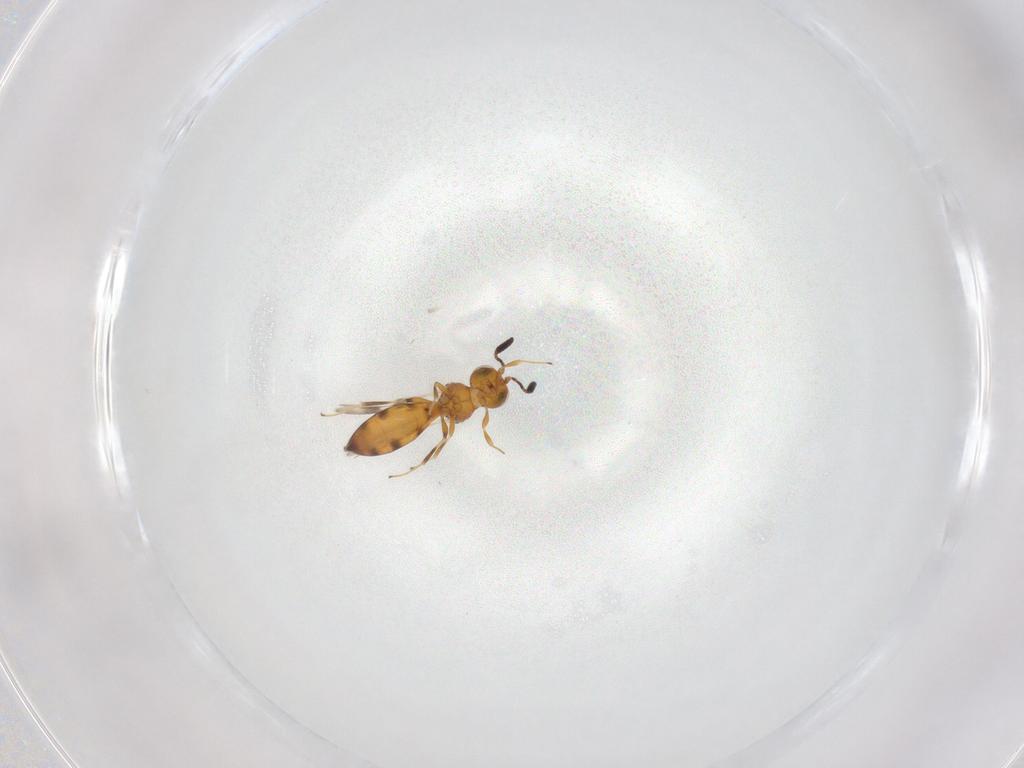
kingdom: Animalia
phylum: Arthropoda
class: Insecta
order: Hymenoptera
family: Scelionidae
